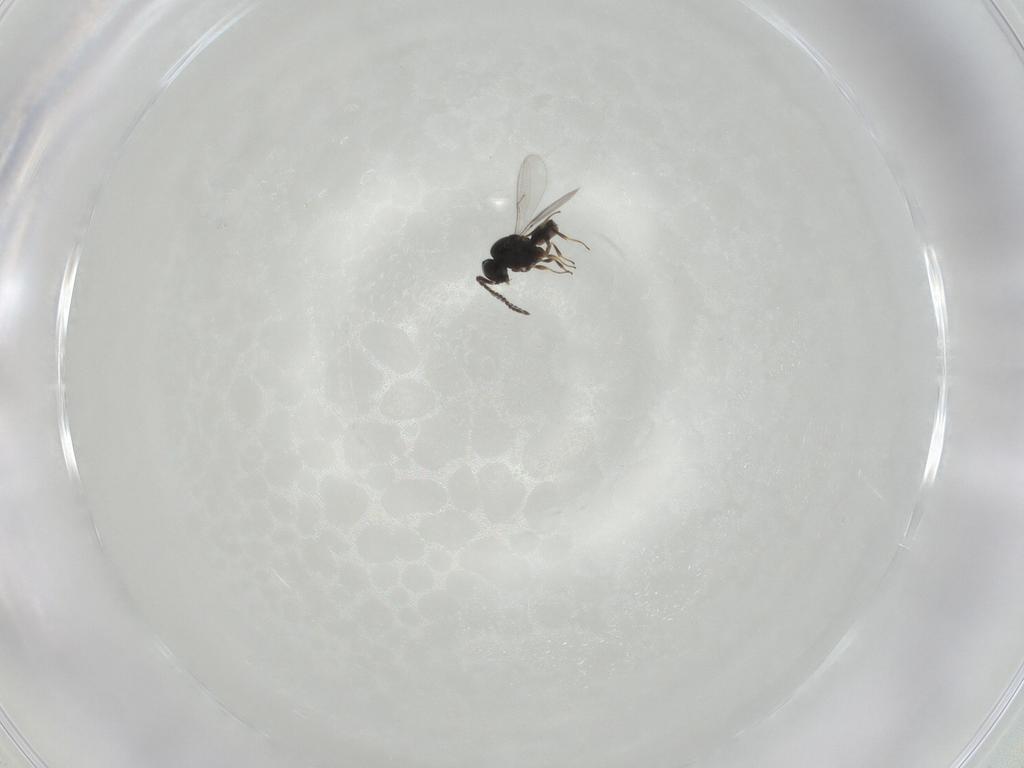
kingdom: Animalia
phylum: Arthropoda
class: Insecta
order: Hymenoptera
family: Scelionidae
